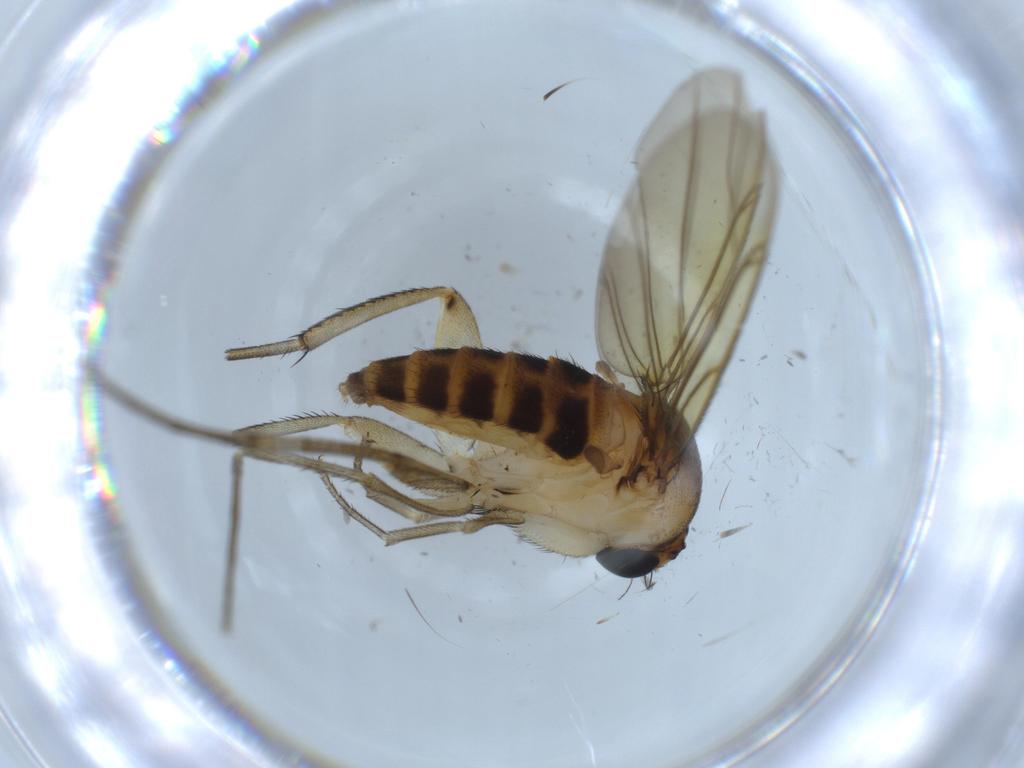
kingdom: Animalia
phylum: Arthropoda
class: Insecta
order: Diptera
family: Phoridae
